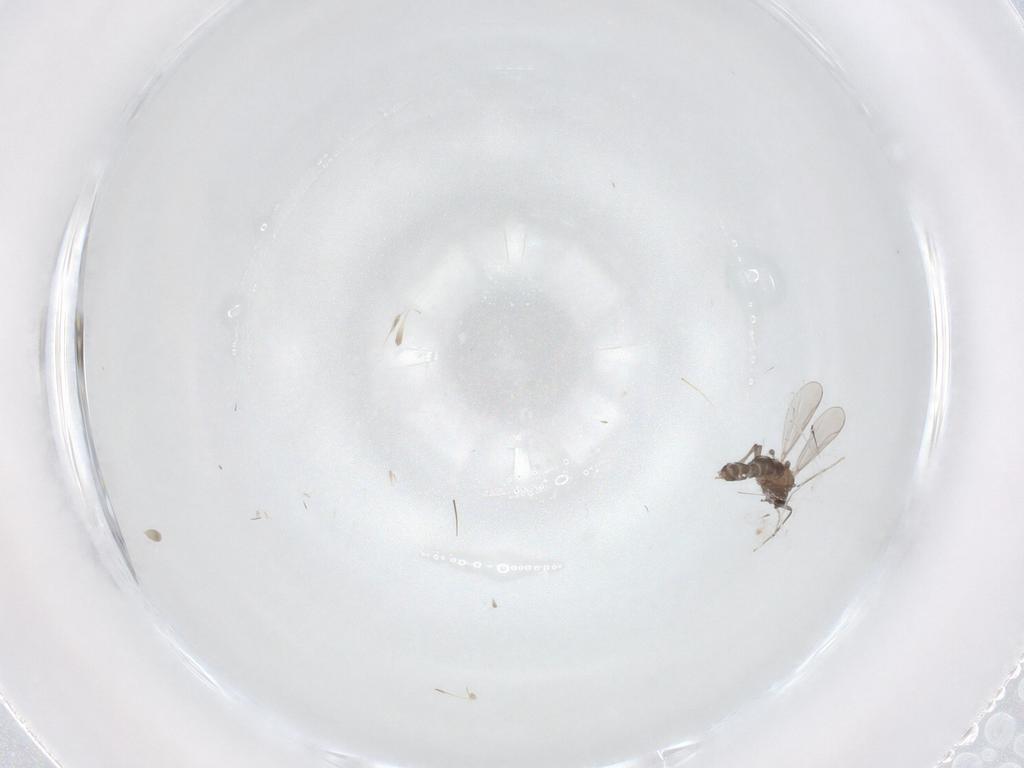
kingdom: Animalia
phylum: Arthropoda
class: Insecta
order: Diptera
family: Chironomidae
